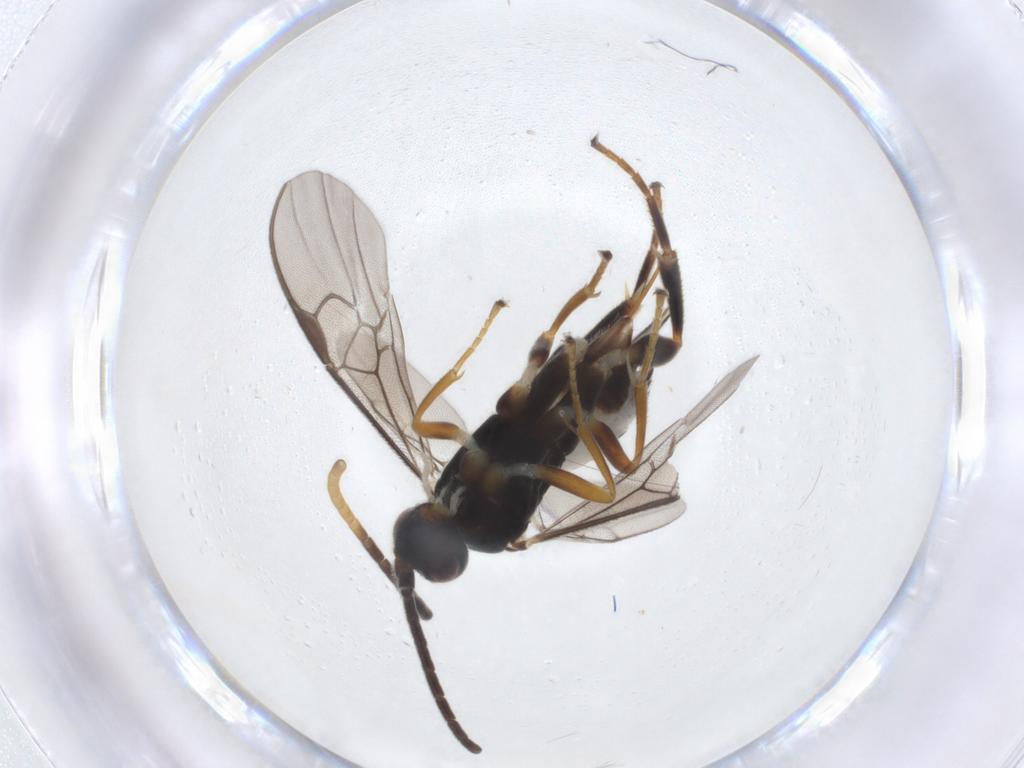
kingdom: Animalia
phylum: Arthropoda
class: Insecta
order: Hymenoptera
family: Braconidae
